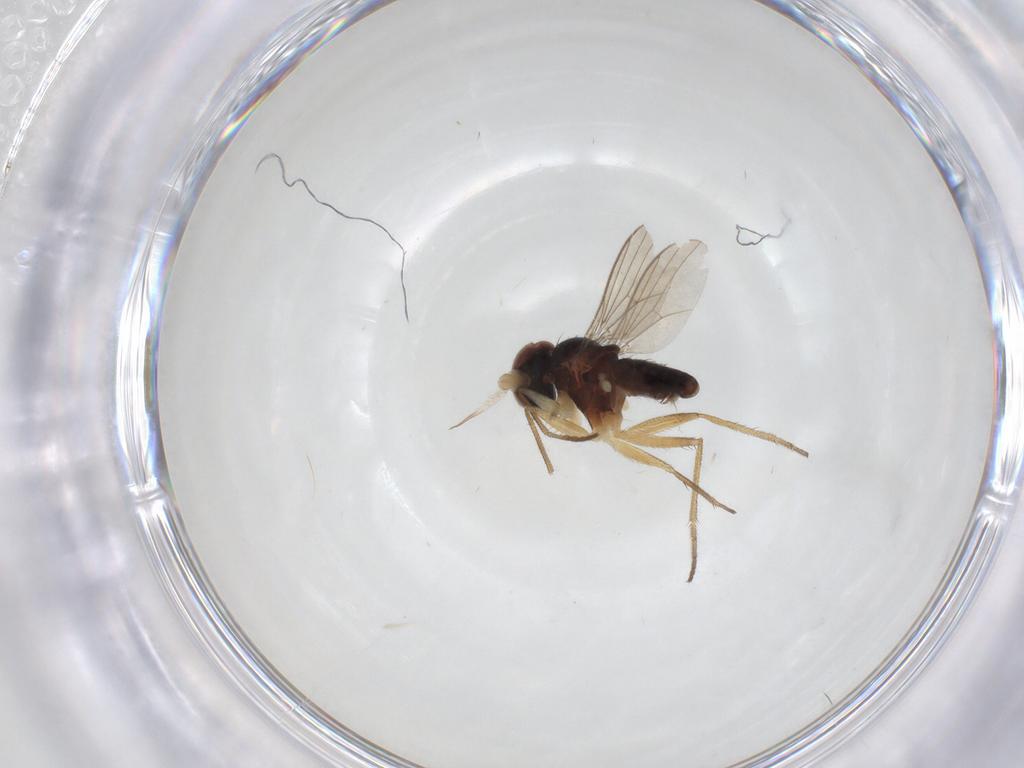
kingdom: Animalia
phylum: Arthropoda
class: Insecta
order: Diptera
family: Dolichopodidae
